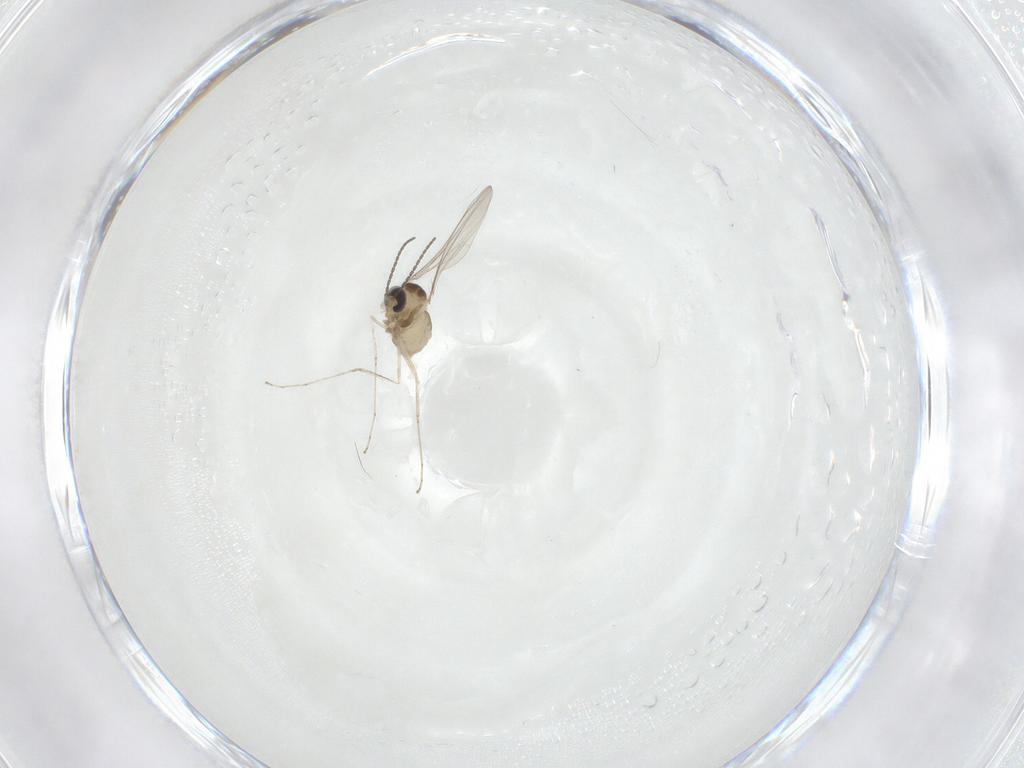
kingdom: Animalia
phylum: Arthropoda
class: Insecta
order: Diptera
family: Cecidomyiidae
